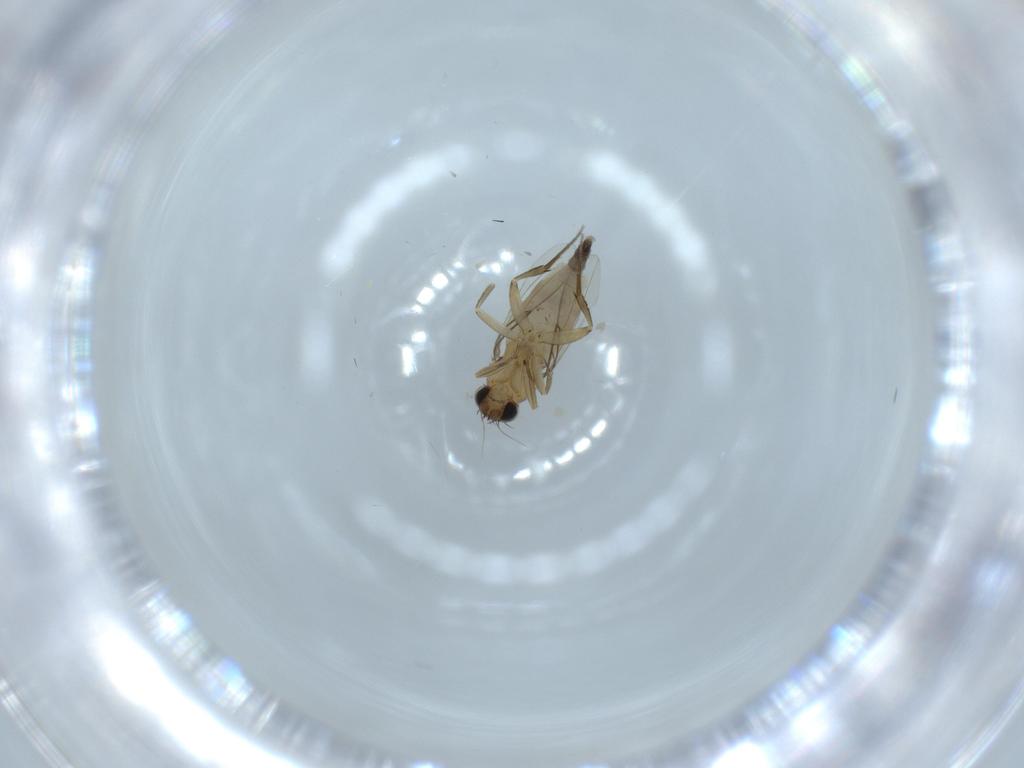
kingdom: Animalia
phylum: Arthropoda
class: Insecta
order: Diptera
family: Phoridae
